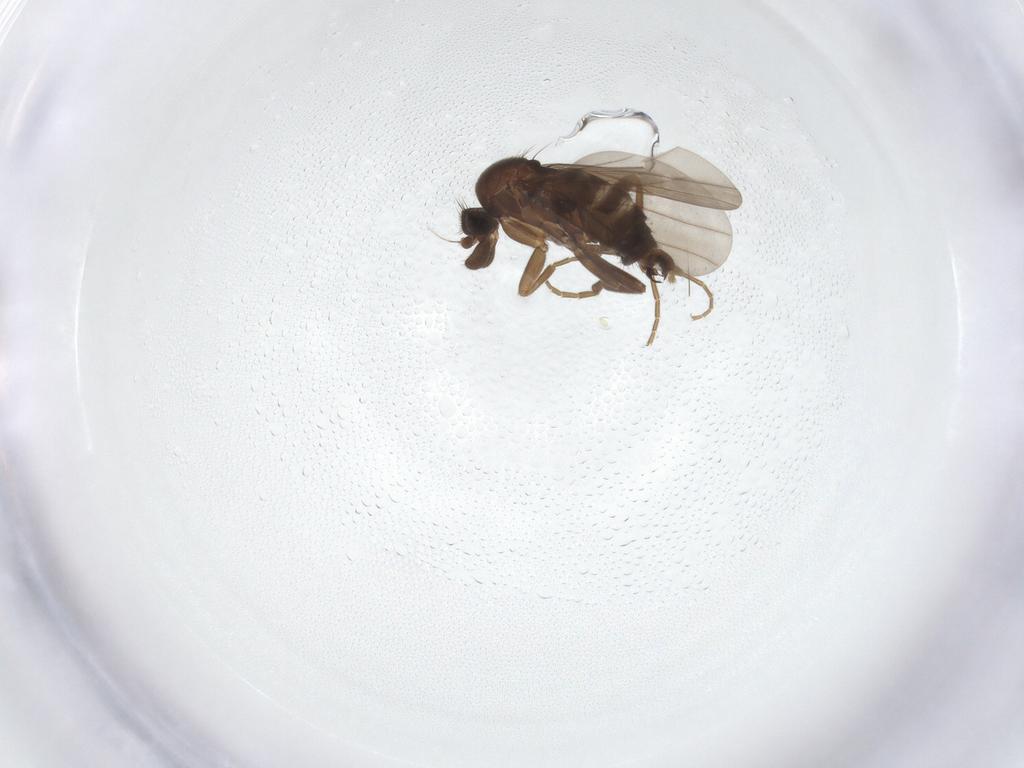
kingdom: Animalia
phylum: Arthropoda
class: Insecta
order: Diptera
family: Phoridae
